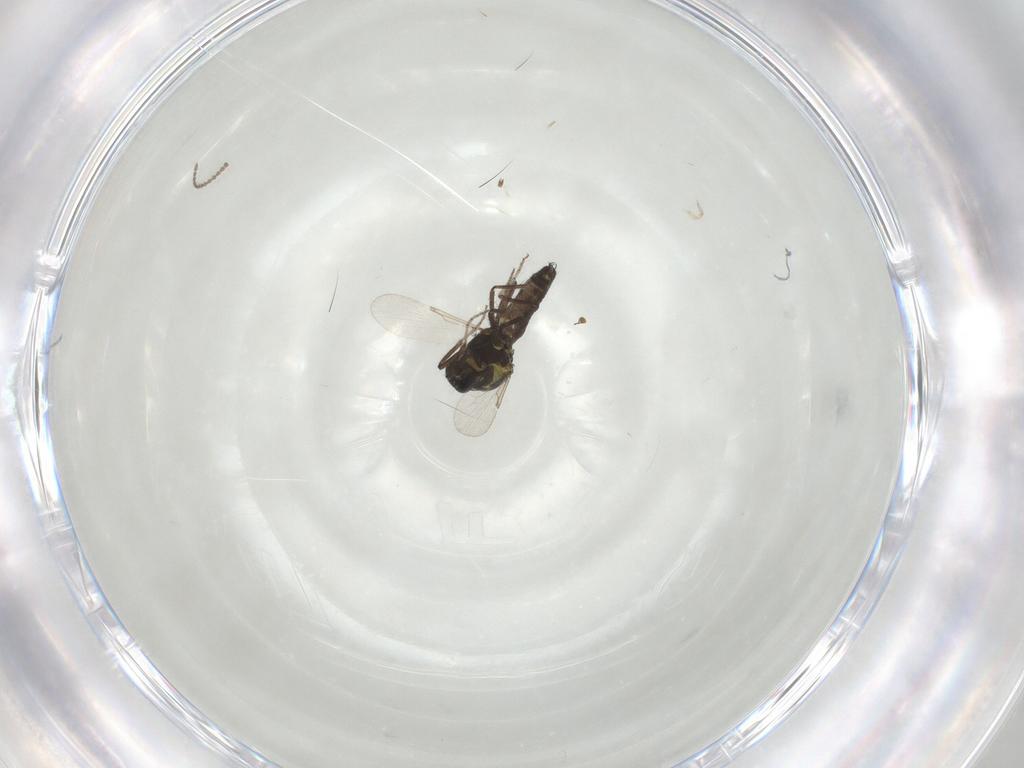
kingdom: Animalia
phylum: Arthropoda
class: Insecta
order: Diptera
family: Ceratopogonidae
